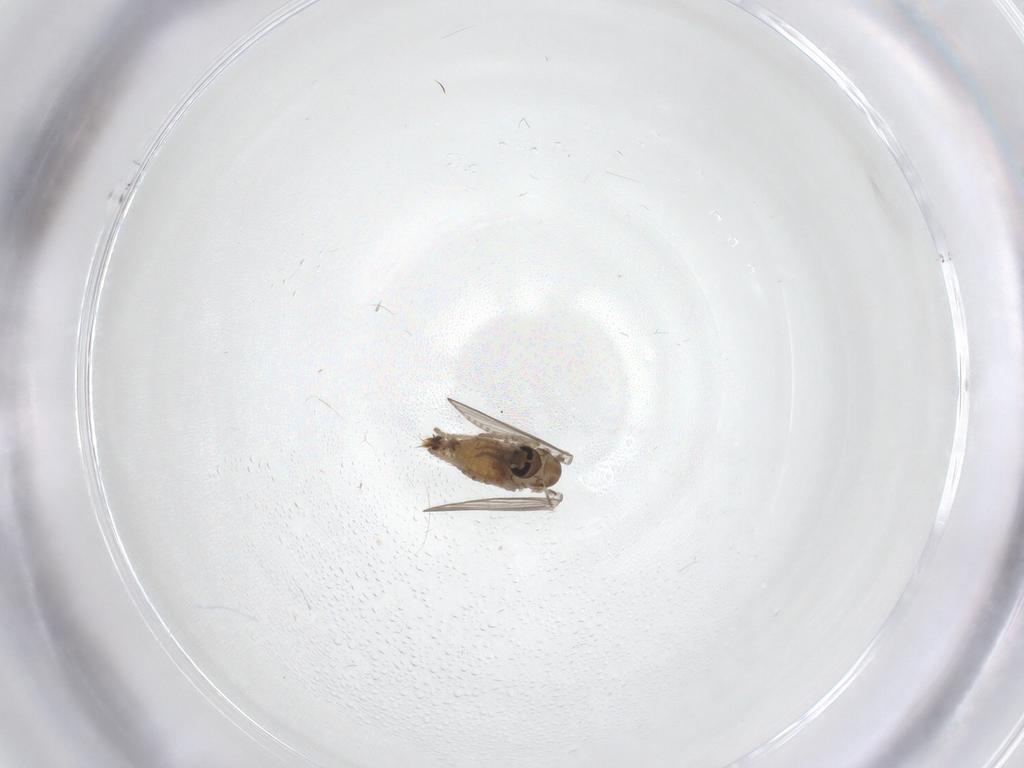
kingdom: Animalia
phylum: Arthropoda
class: Insecta
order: Diptera
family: Psychodidae
